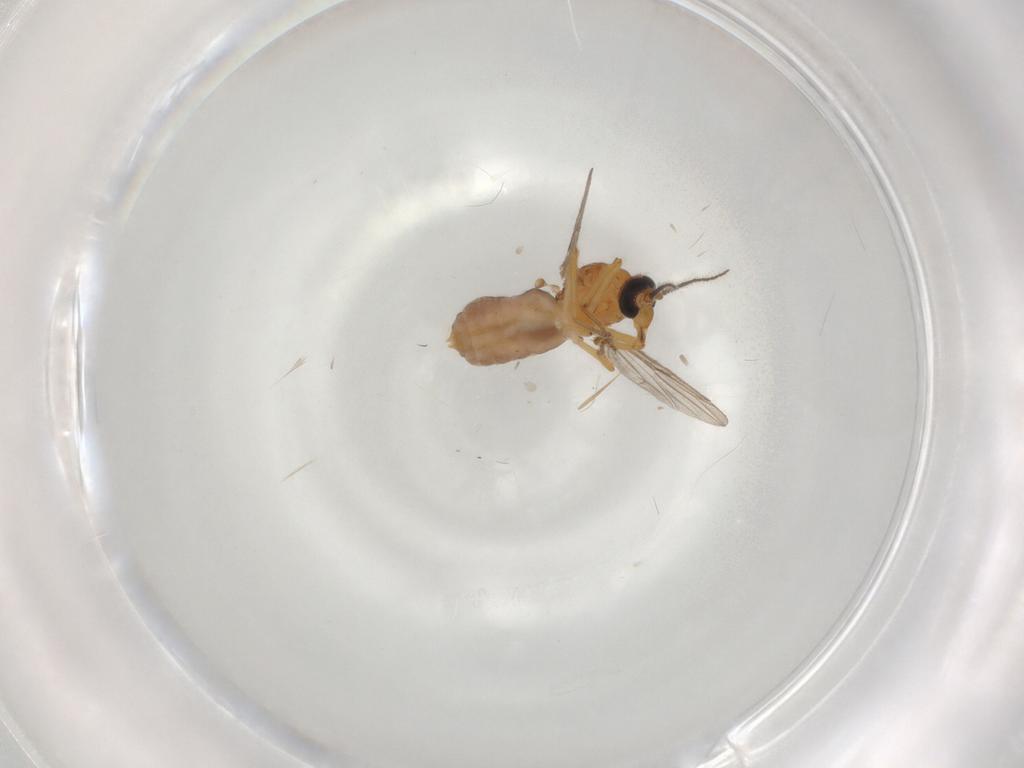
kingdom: Animalia
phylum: Arthropoda
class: Insecta
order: Diptera
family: Ceratopogonidae
